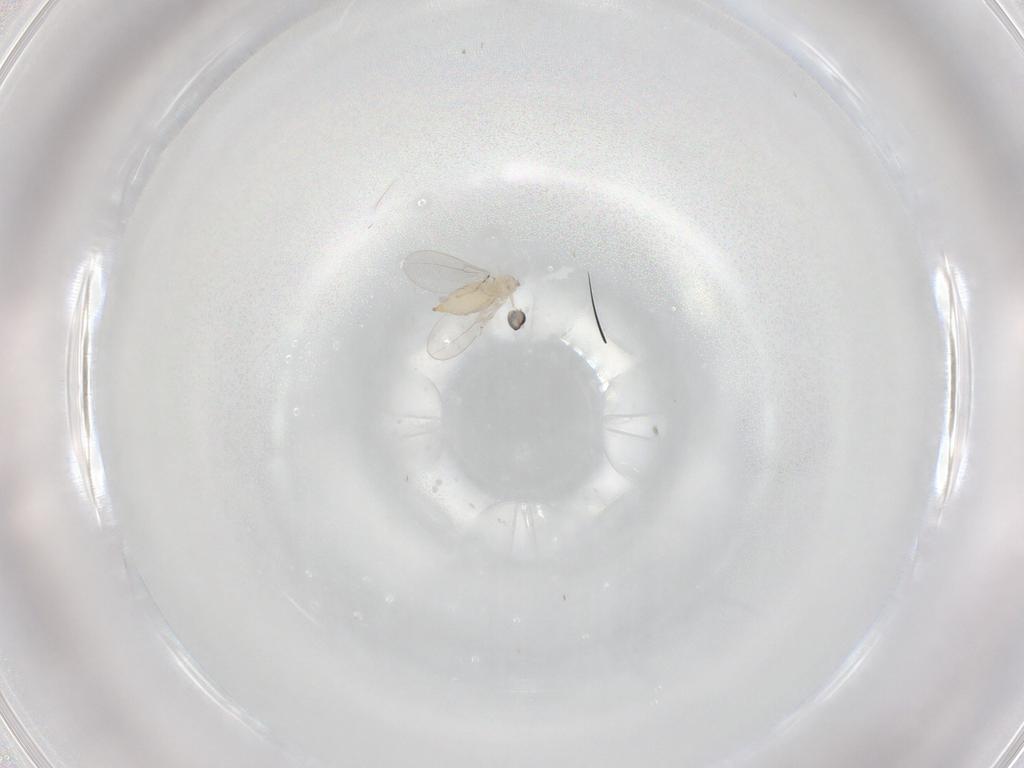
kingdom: Animalia
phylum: Arthropoda
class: Insecta
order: Diptera
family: Cecidomyiidae
